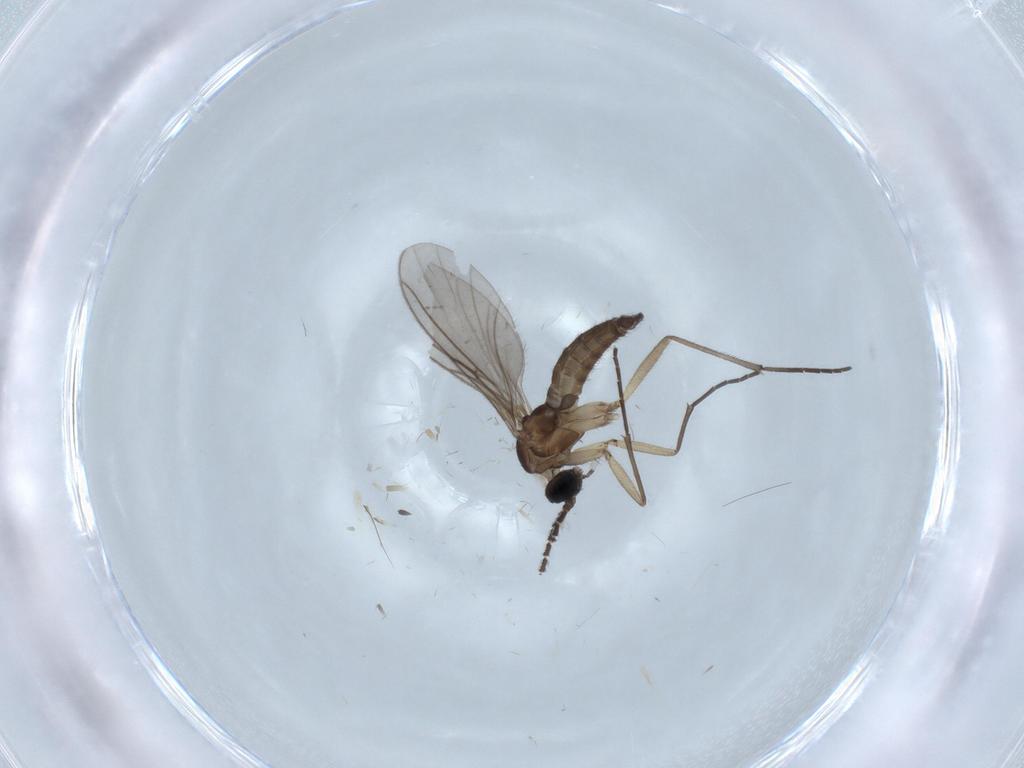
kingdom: Animalia
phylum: Arthropoda
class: Insecta
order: Diptera
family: Sciaridae
